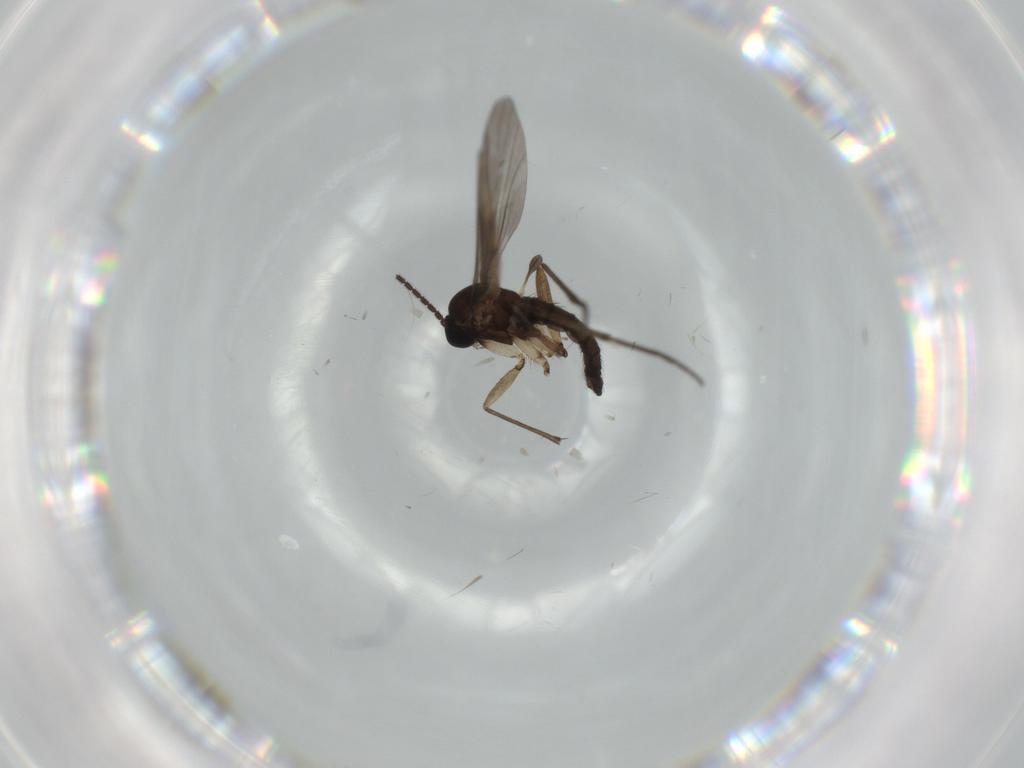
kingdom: Animalia
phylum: Arthropoda
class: Insecta
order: Diptera
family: Sciaridae
